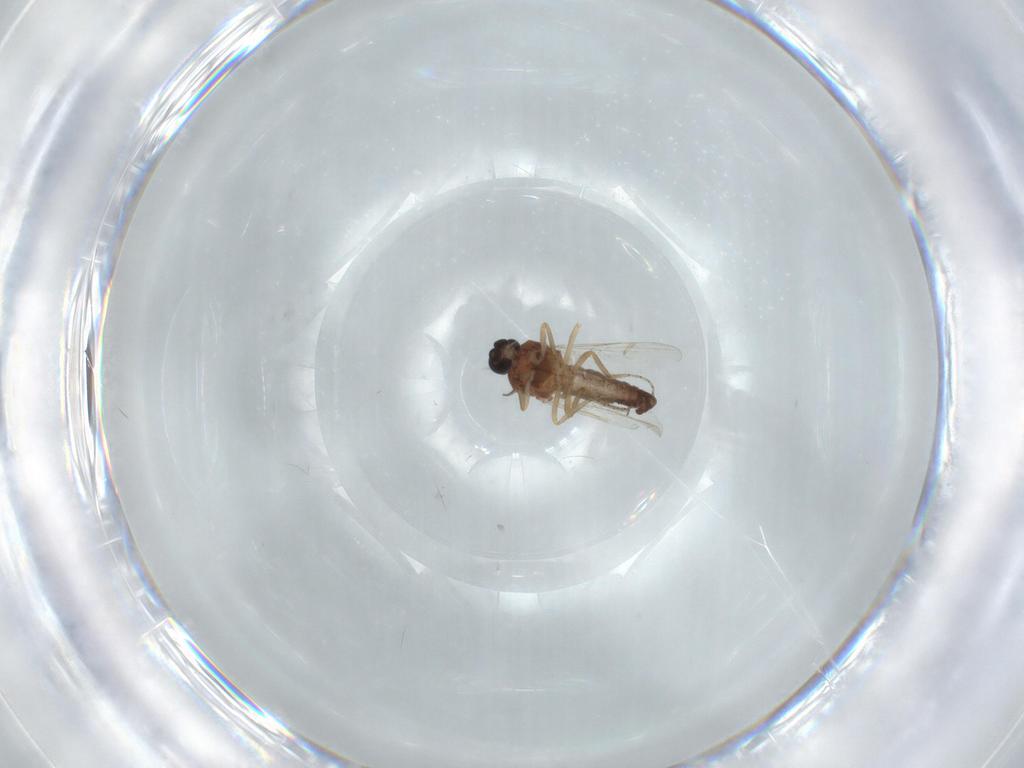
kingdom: Animalia
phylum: Arthropoda
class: Insecta
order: Diptera
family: Ceratopogonidae
